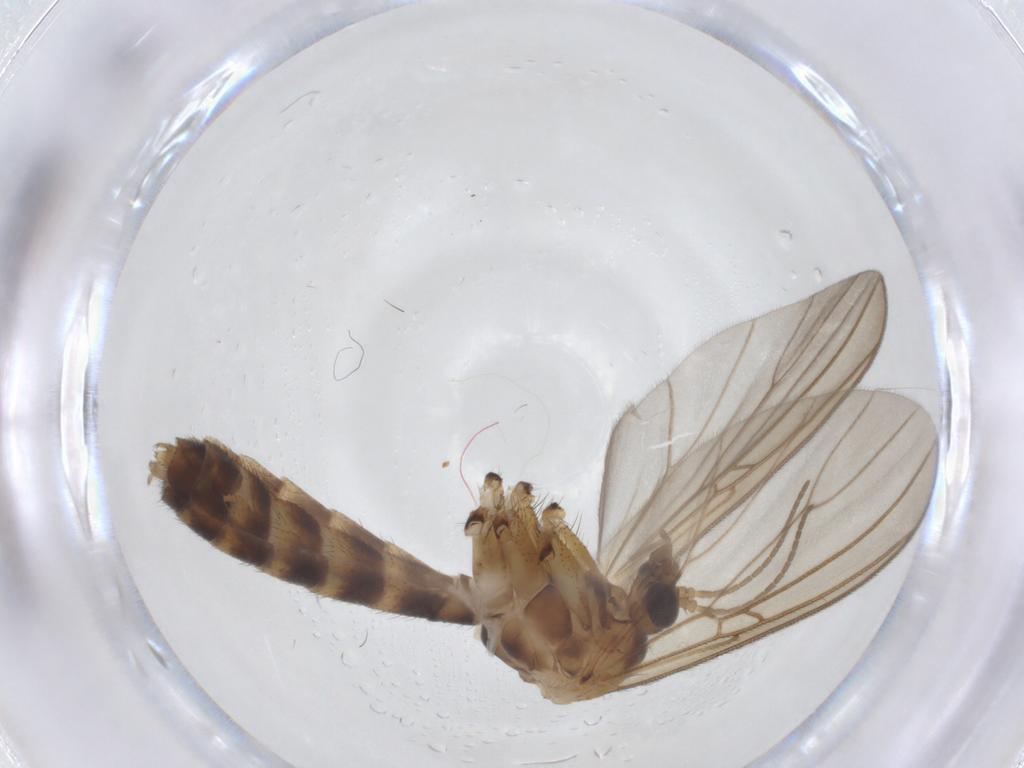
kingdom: Animalia
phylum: Arthropoda
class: Insecta
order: Diptera
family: Mycetophilidae
